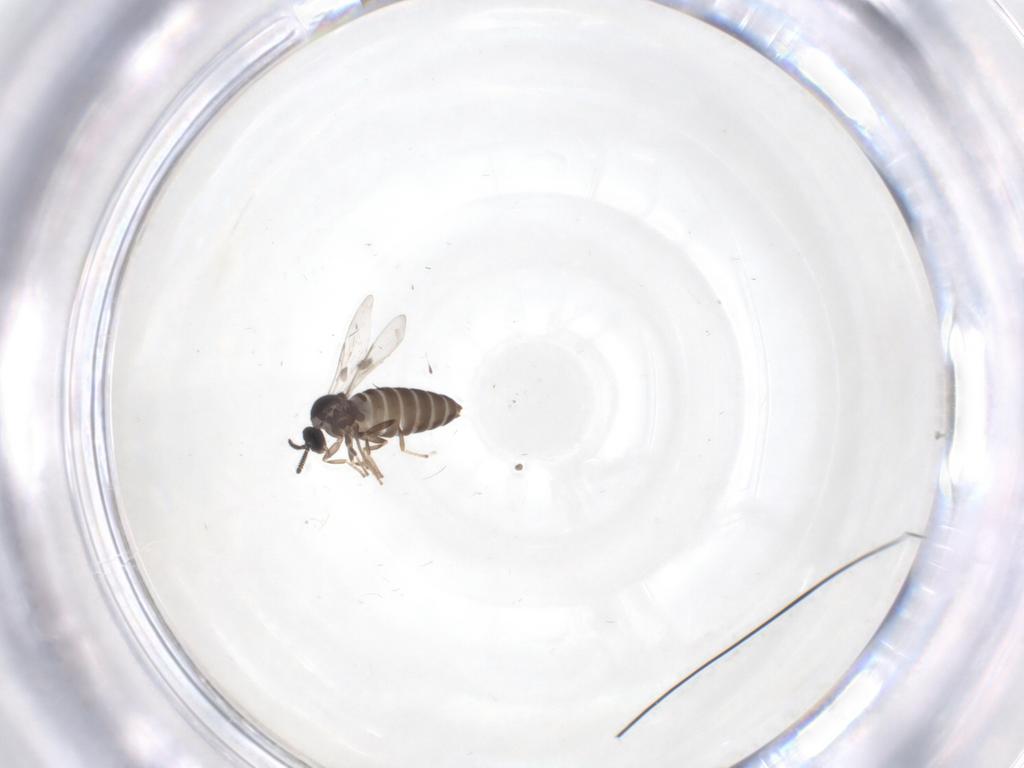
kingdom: Animalia
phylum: Arthropoda
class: Insecta
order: Diptera
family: Scatopsidae
